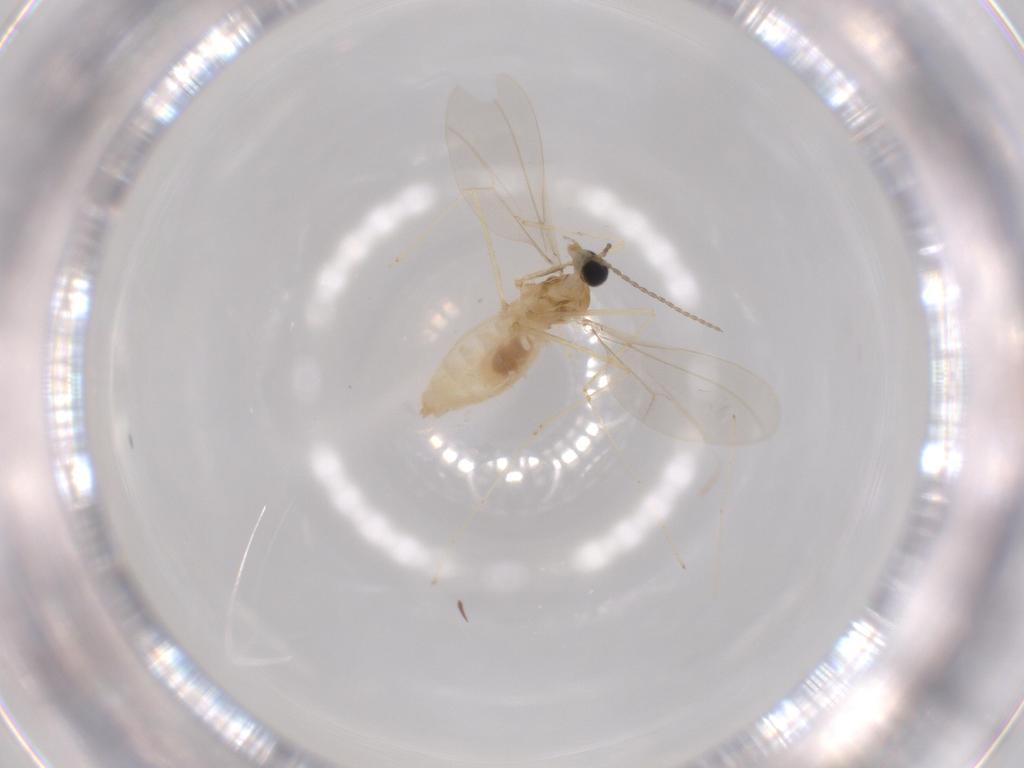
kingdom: Animalia
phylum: Arthropoda
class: Insecta
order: Diptera
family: Cecidomyiidae
